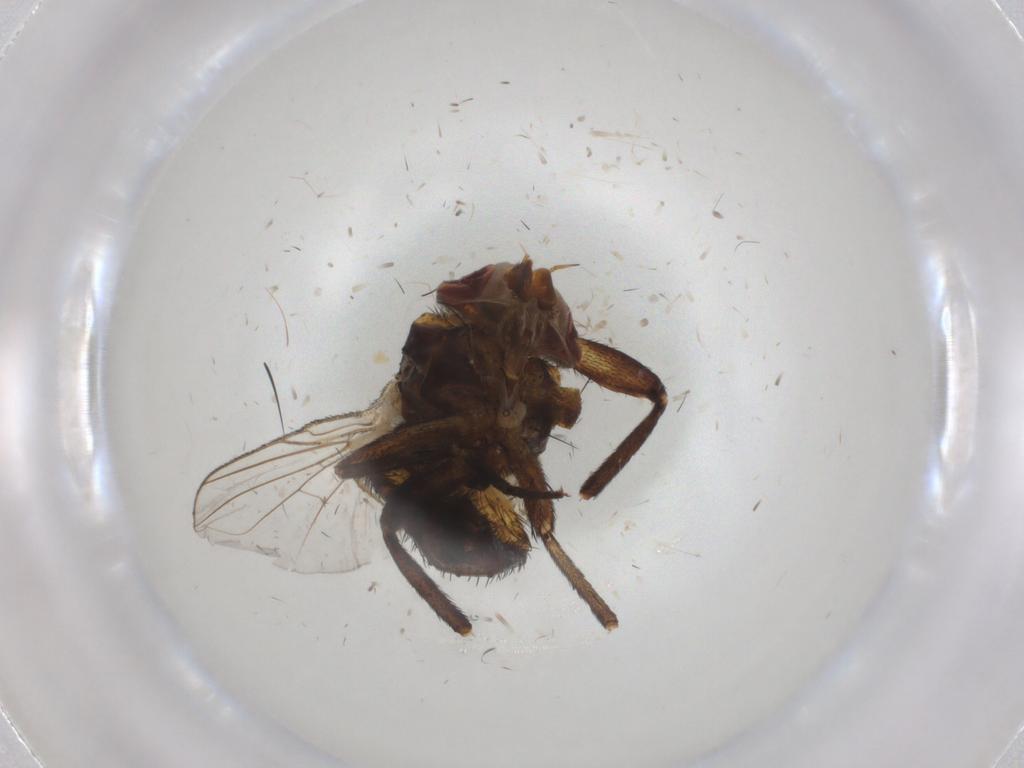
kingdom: Animalia
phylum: Arthropoda
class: Insecta
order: Diptera
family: Glossinidae
